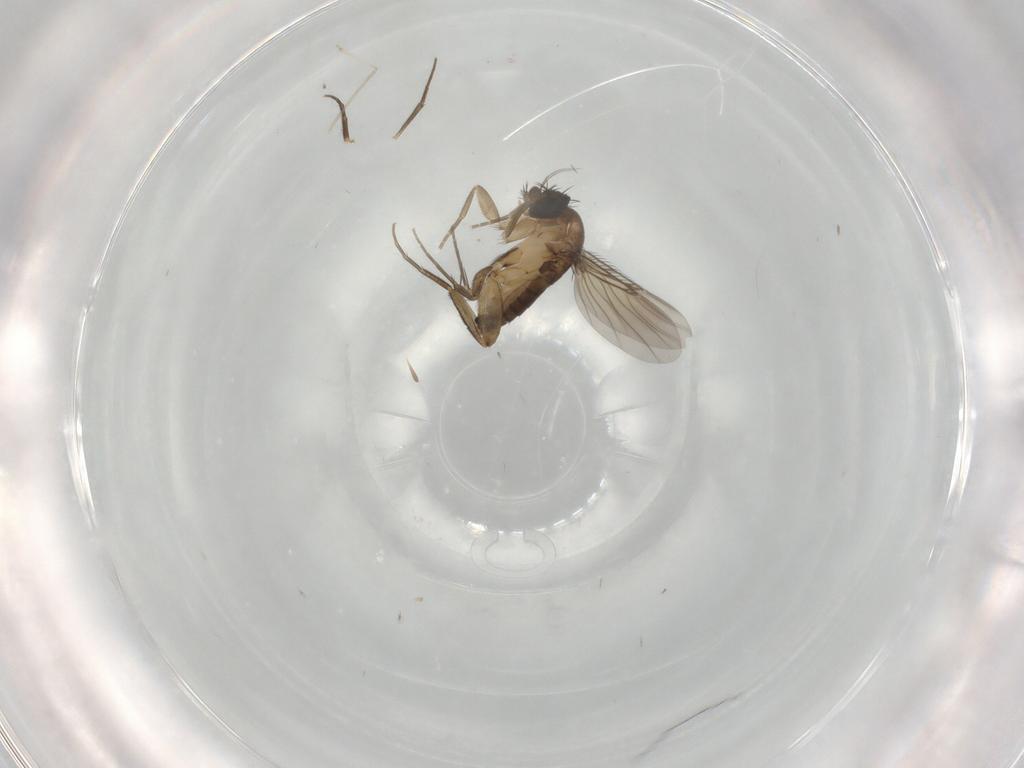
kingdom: Animalia
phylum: Arthropoda
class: Insecta
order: Diptera
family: Phoridae
